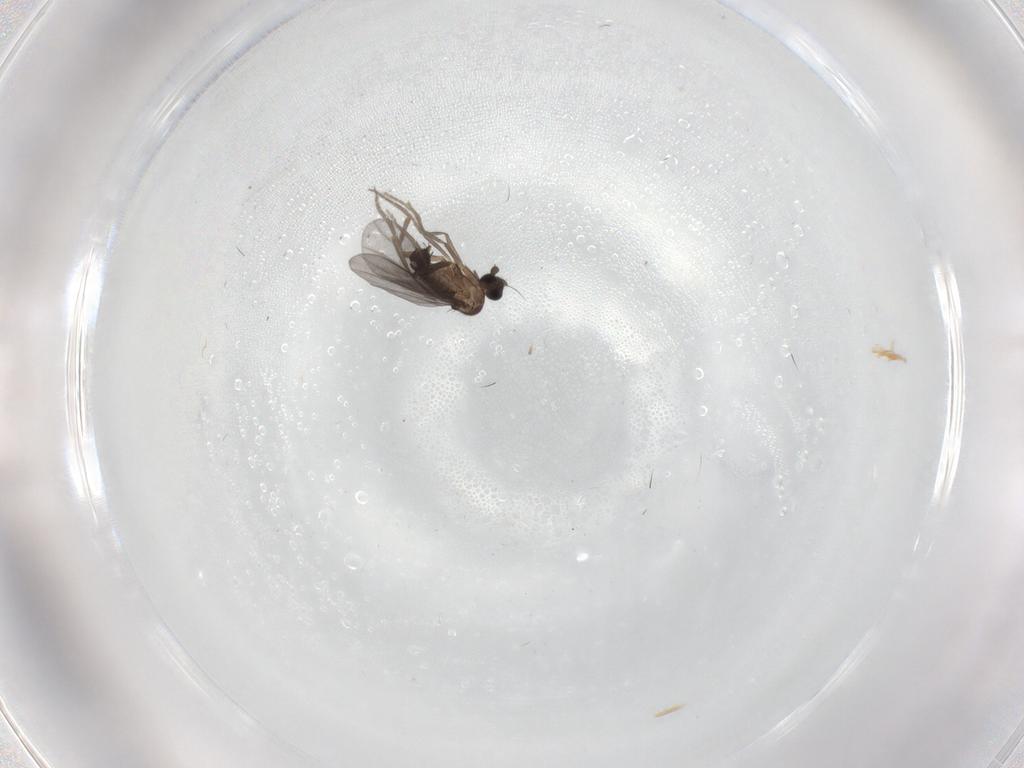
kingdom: Animalia
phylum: Arthropoda
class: Insecta
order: Diptera
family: Phoridae
